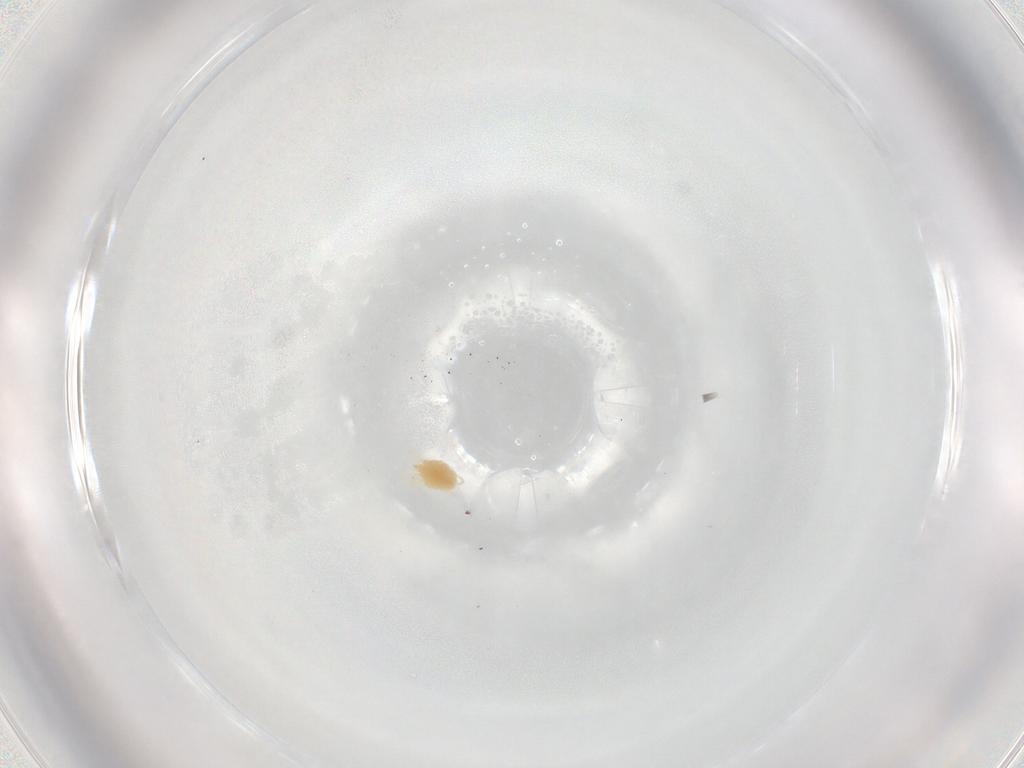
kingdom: Animalia
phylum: Arthropoda
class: Arachnida
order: Trombidiformes
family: Tetranychidae
